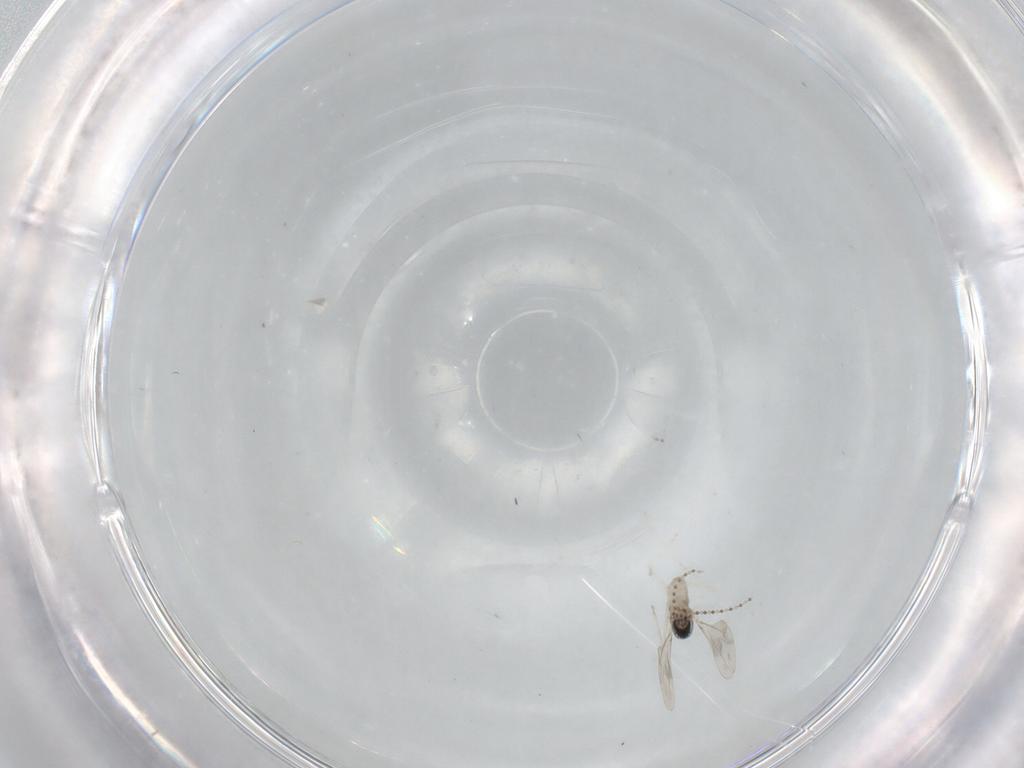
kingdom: Animalia
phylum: Arthropoda
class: Insecta
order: Diptera
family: Cecidomyiidae
